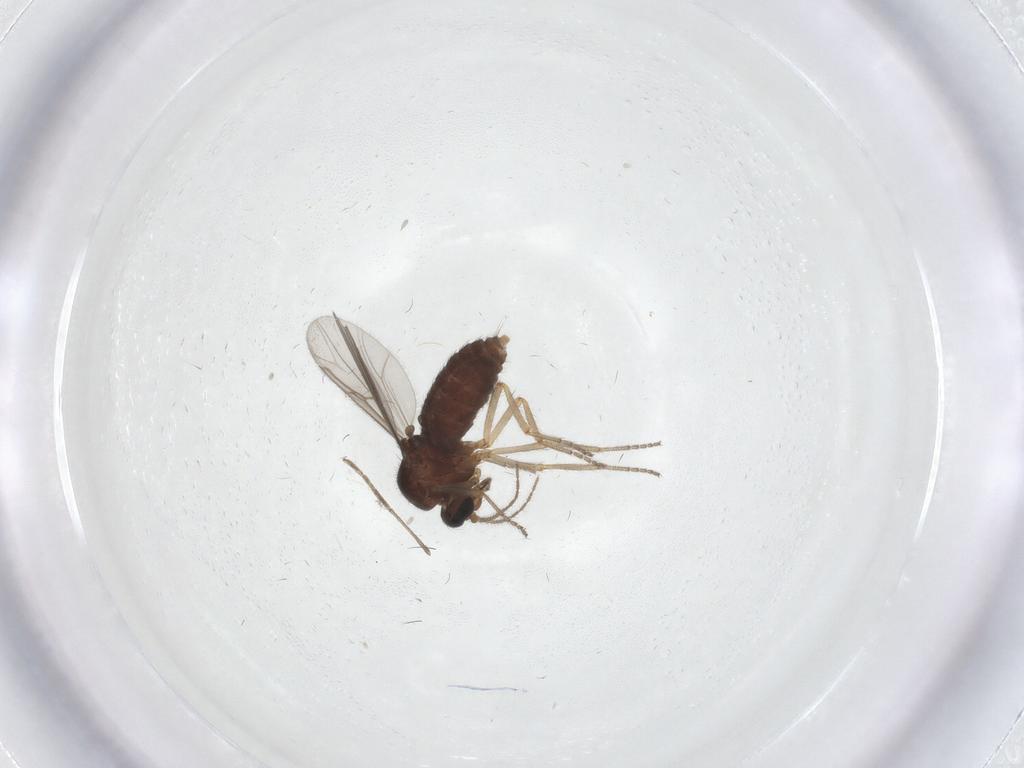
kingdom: Animalia
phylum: Arthropoda
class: Insecta
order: Diptera
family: Ceratopogonidae
